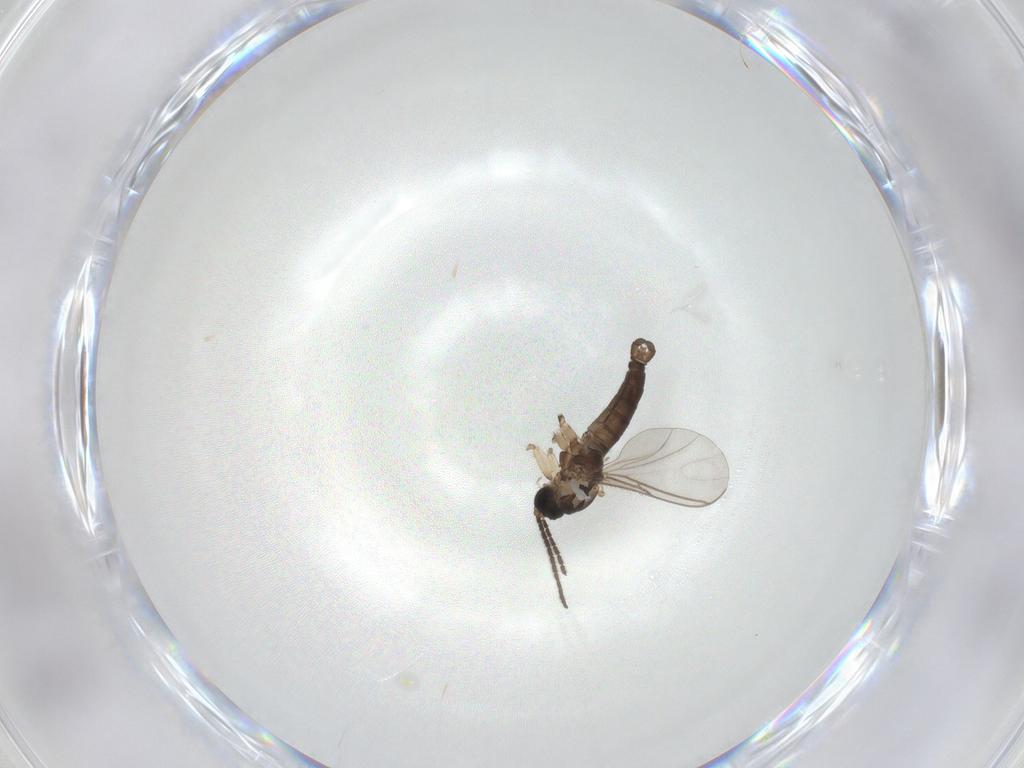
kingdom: Animalia
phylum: Arthropoda
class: Insecta
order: Diptera
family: Sciaridae
